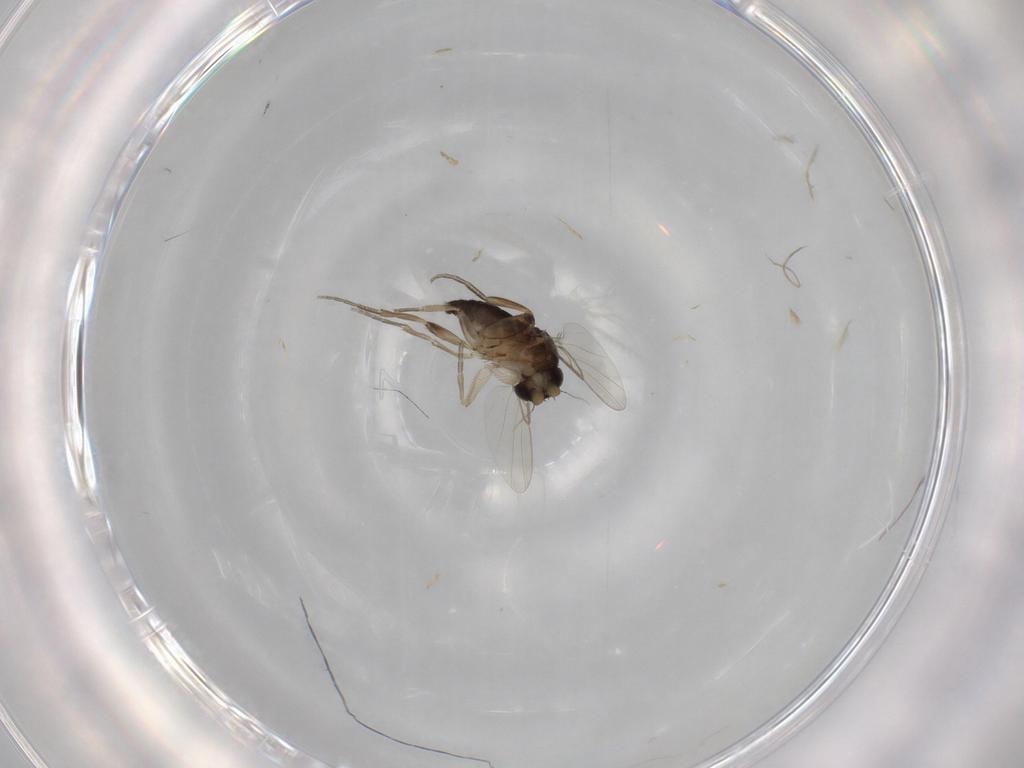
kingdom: Animalia
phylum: Arthropoda
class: Insecta
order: Diptera
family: Phoridae
